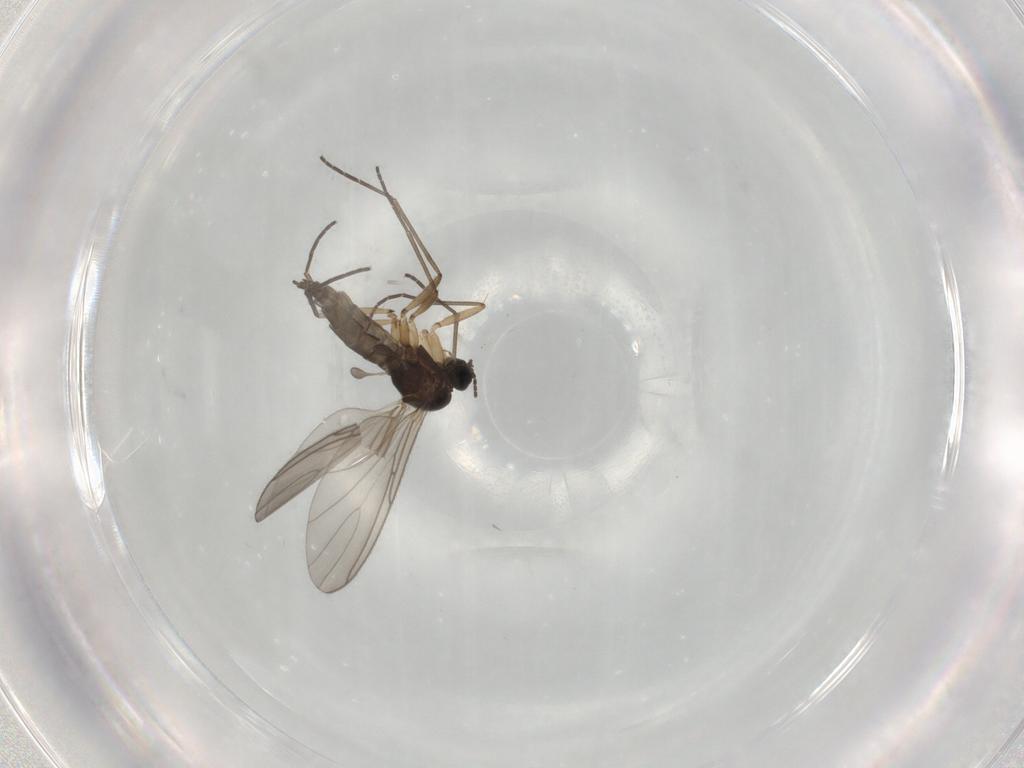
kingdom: Animalia
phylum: Arthropoda
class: Insecta
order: Diptera
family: Sciaridae
